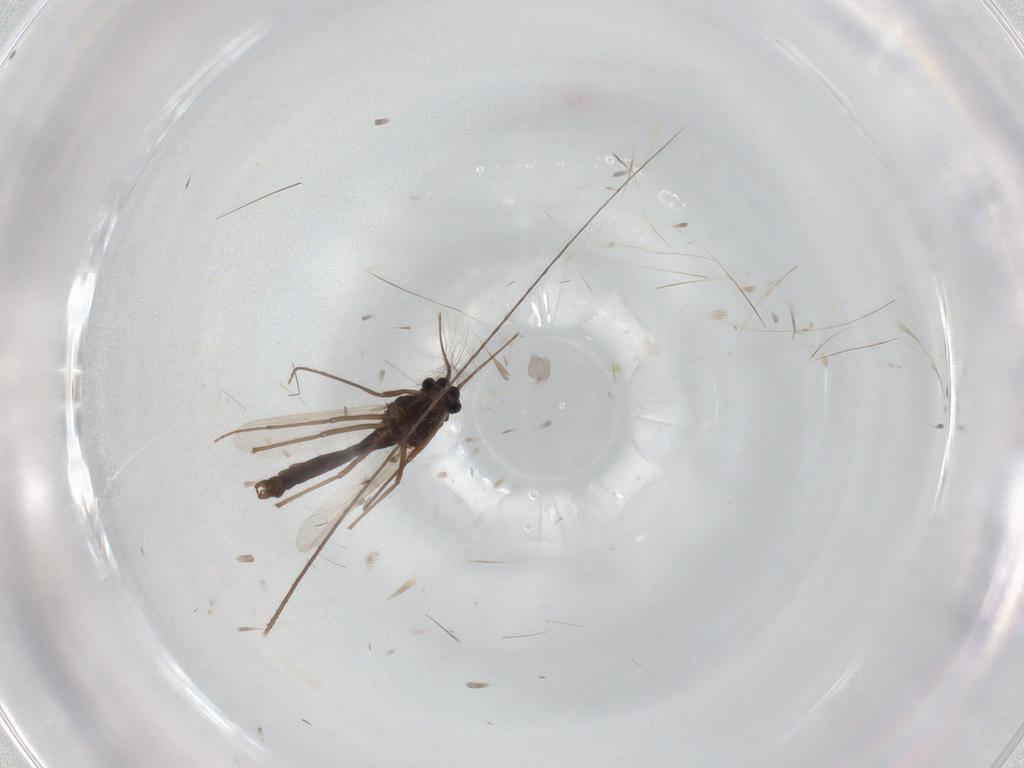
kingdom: Animalia
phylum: Arthropoda
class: Insecta
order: Diptera
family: Chironomidae
